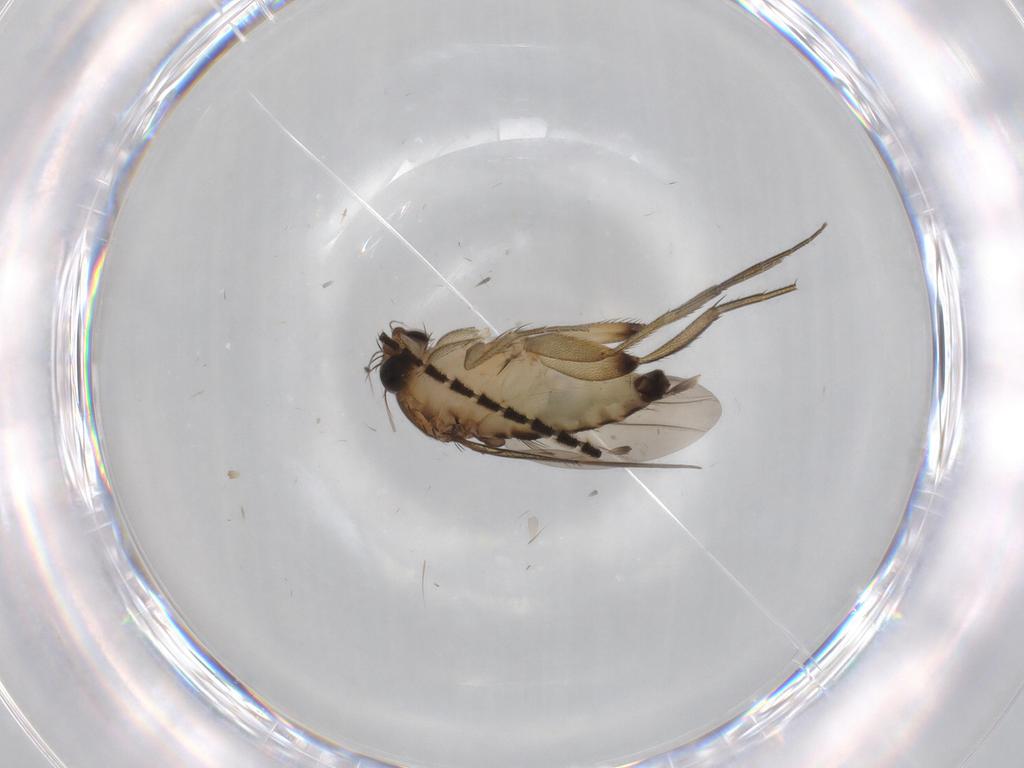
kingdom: Animalia
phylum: Arthropoda
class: Insecta
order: Diptera
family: Phoridae
